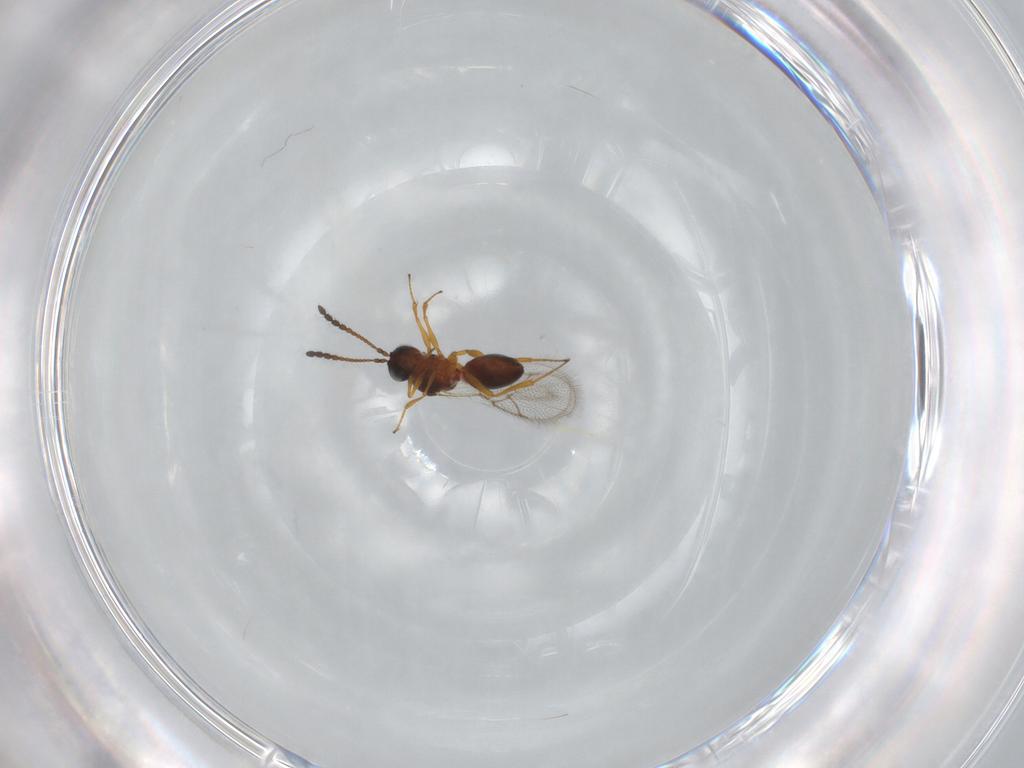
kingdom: Animalia
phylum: Arthropoda
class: Insecta
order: Hymenoptera
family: Figitidae
